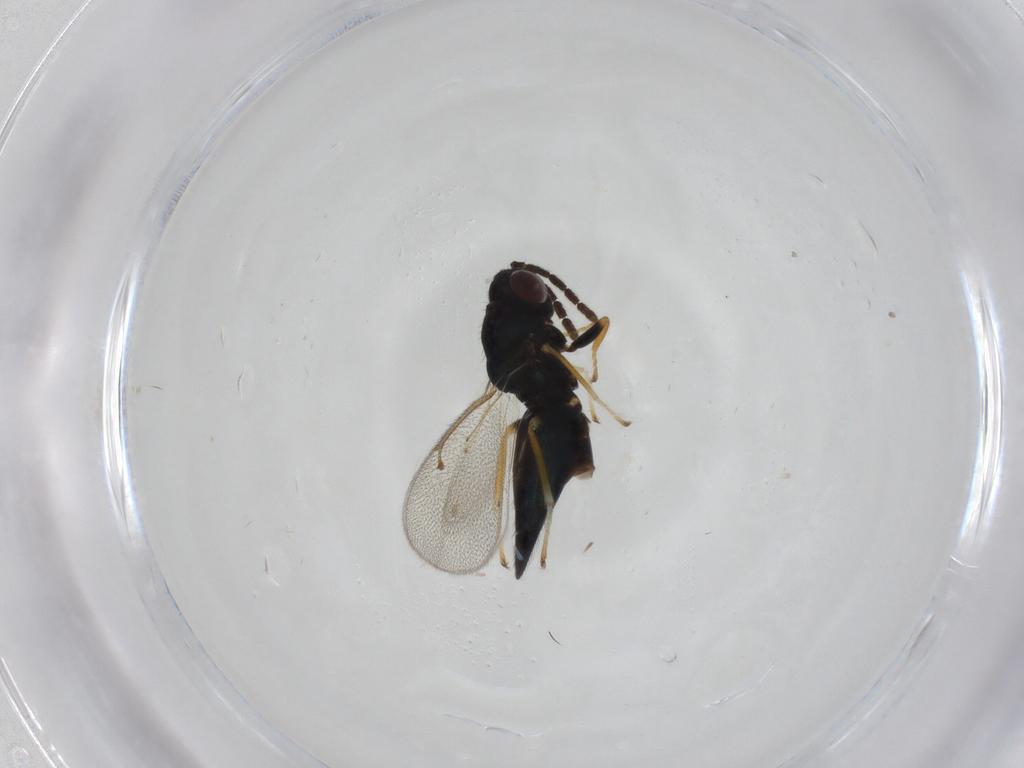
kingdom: Animalia
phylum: Arthropoda
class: Insecta
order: Hymenoptera
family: Eulophidae
